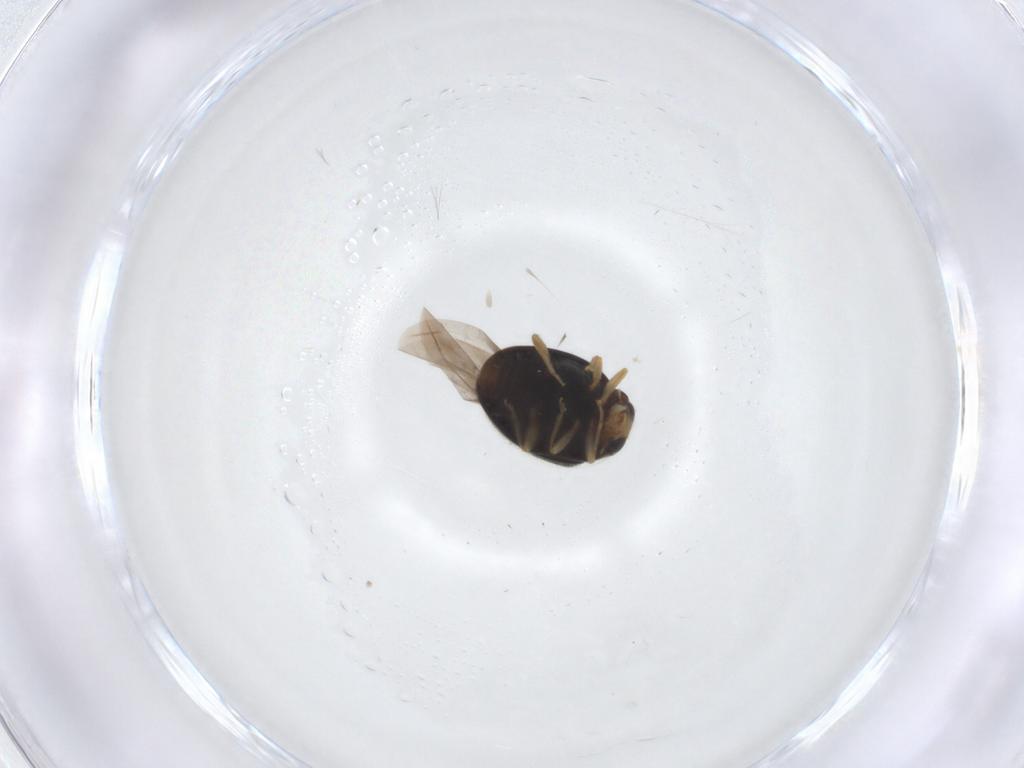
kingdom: Animalia
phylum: Arthropoda
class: Insecta
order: Coleoptera
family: Coccinellidae
